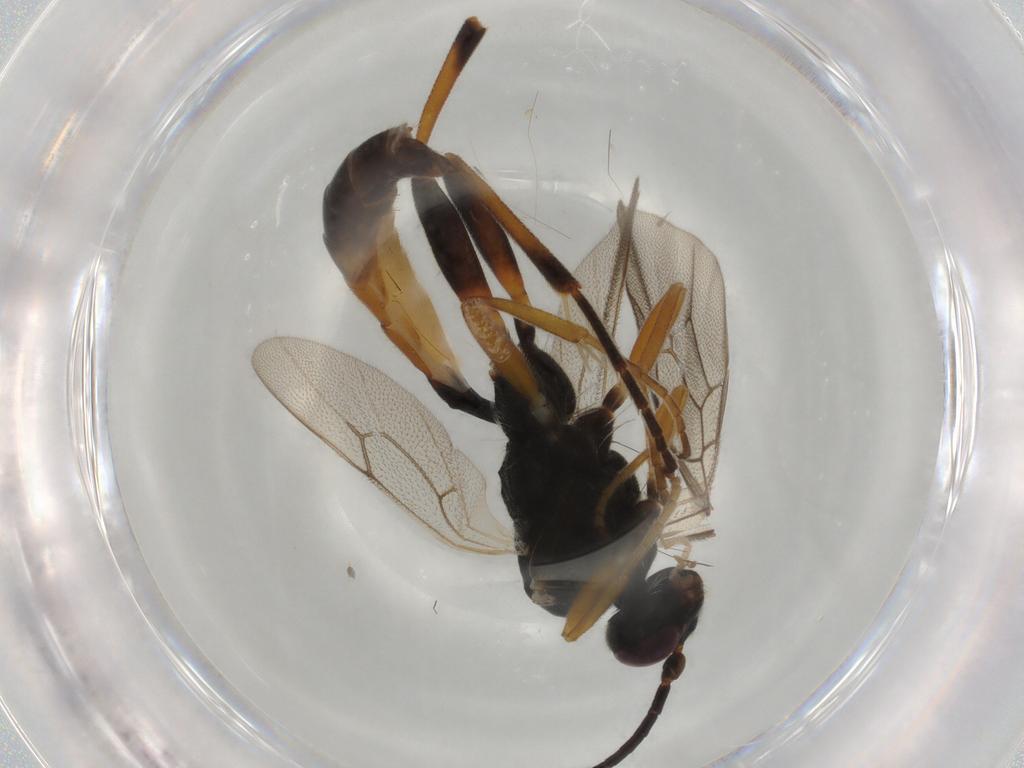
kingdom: Animalia
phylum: Arthropoda
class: Insecta
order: Hymenoptera
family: Ichneumonidae
